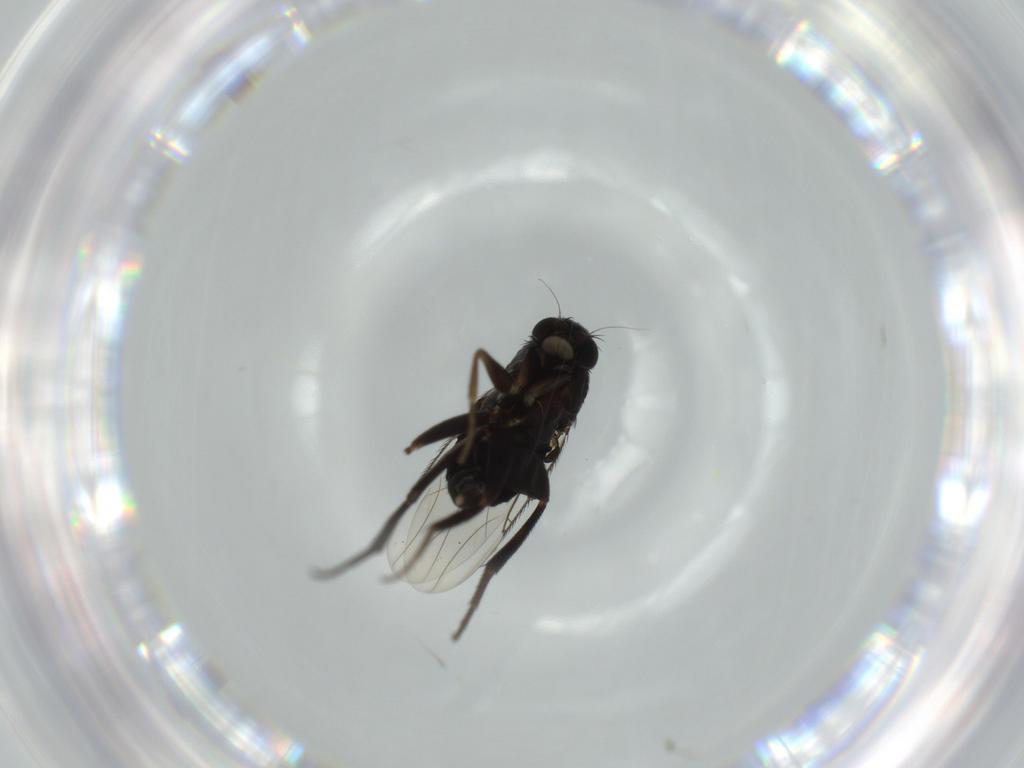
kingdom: Animalia
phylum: Arthropoda
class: Insecta
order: Diptera
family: Phoridae
